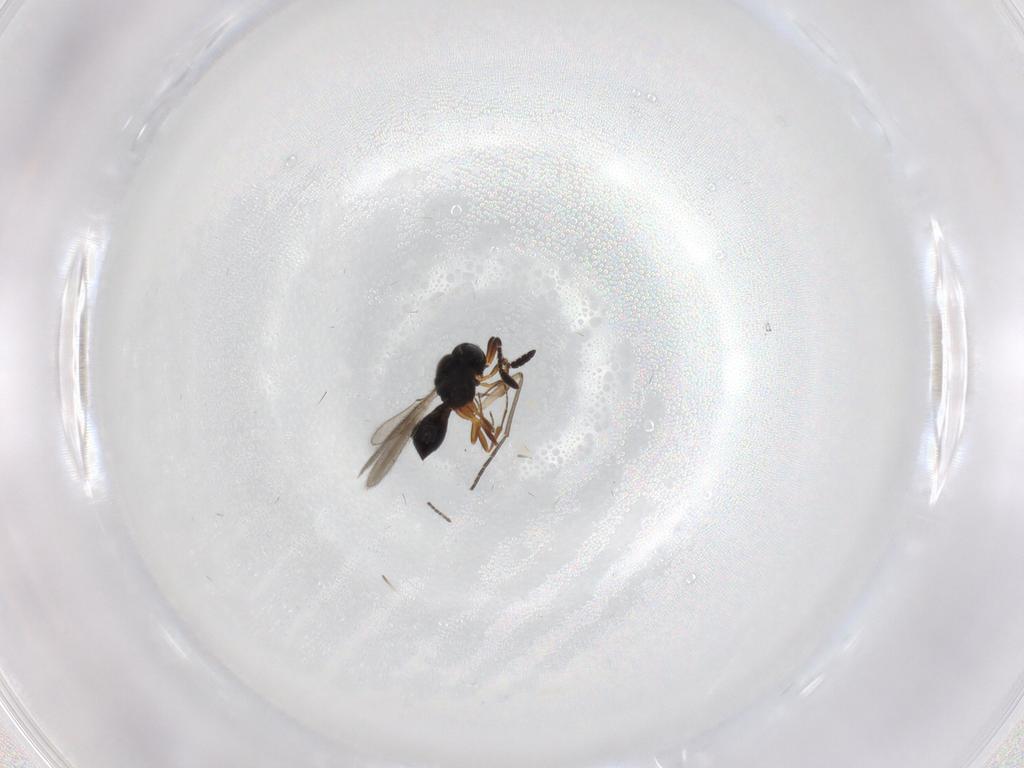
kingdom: Animalia
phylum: Arthropoda
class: Insecta
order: Hymenoptera
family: Scelionidae
